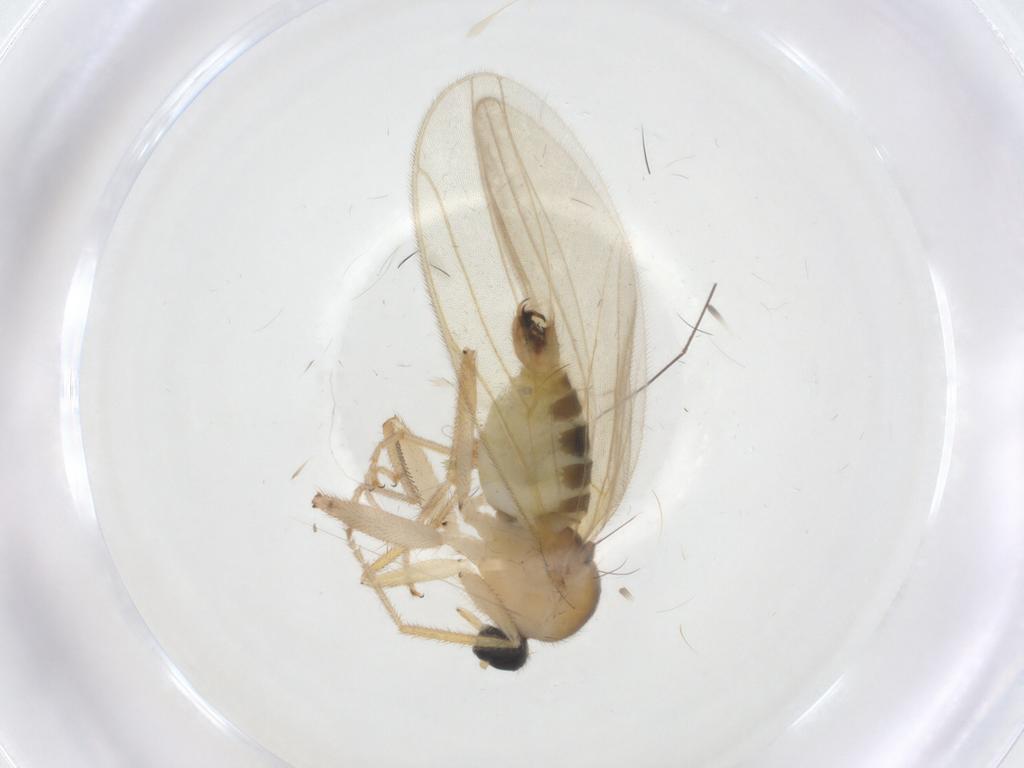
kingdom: Animalia
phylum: Arthropoda
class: Insecta
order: Diptera
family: Hybotidae
